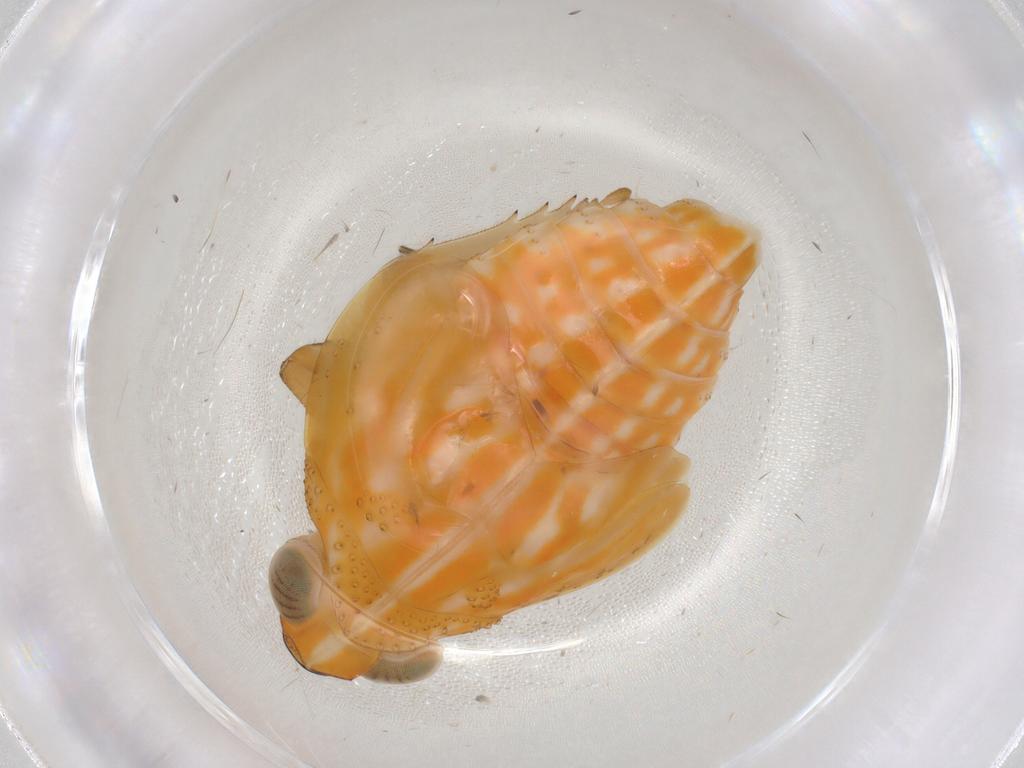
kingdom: Animalia
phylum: Arthropoda
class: Insecta
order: Hemiptera
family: Issidae
